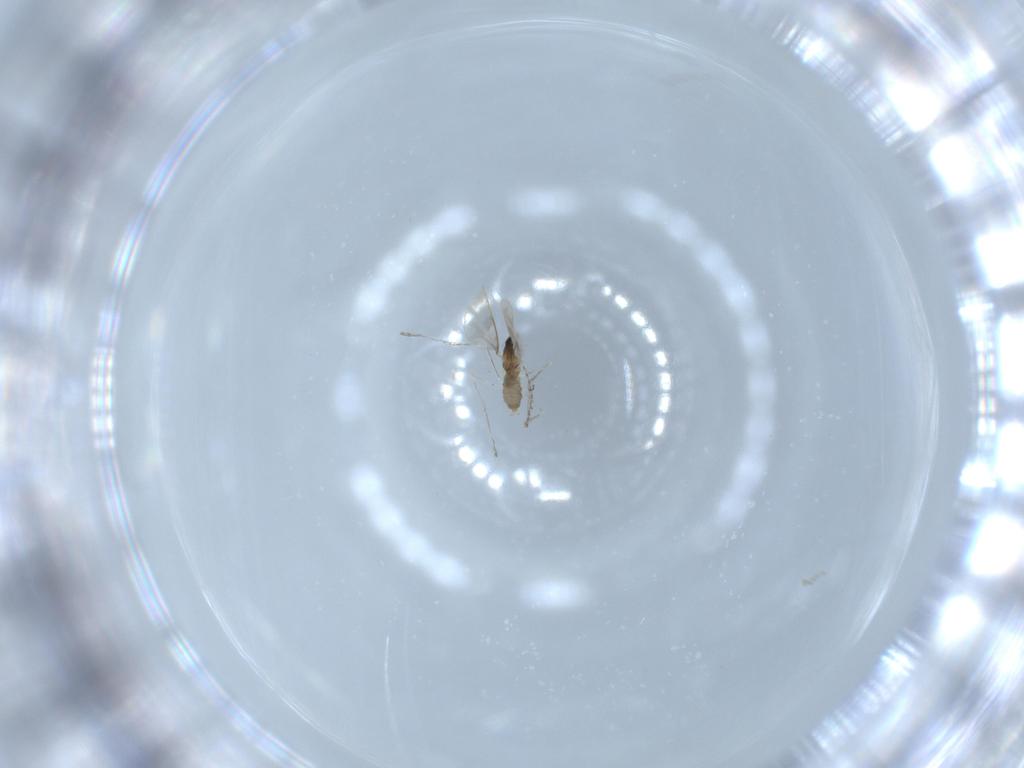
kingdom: Animalia
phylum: Arthropoda
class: Insecta
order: Diptera
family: Cecidomyiidae
